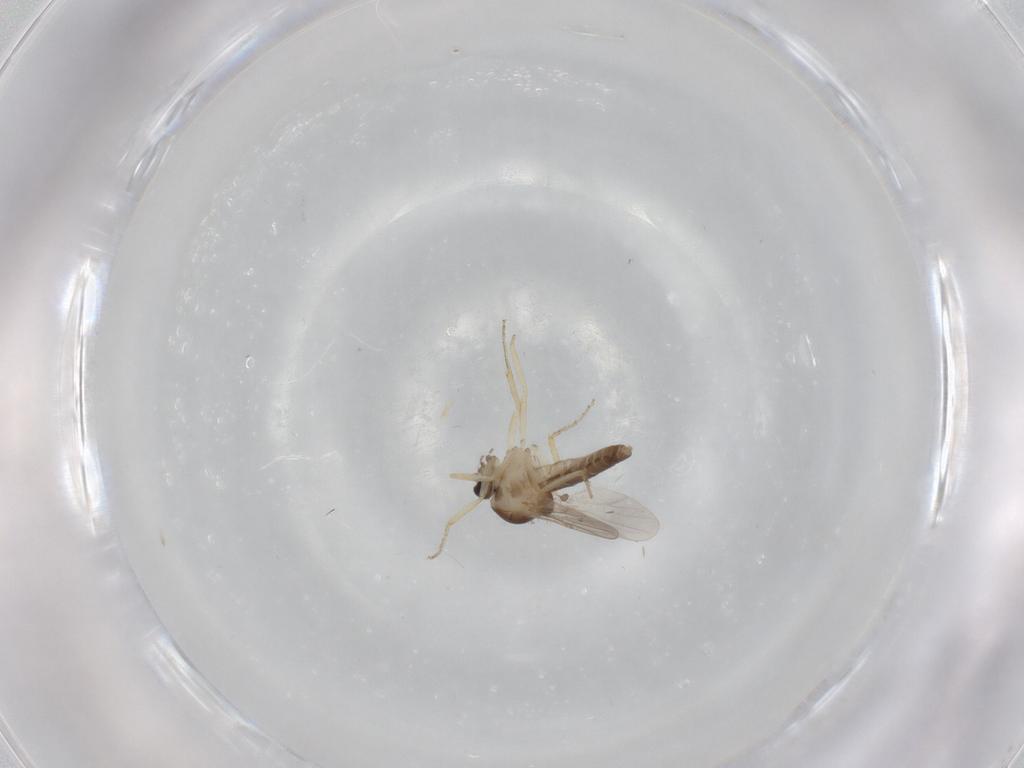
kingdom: Animalia
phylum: Arthropoda
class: Insecta
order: Diptera
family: Ceratopogonidae
